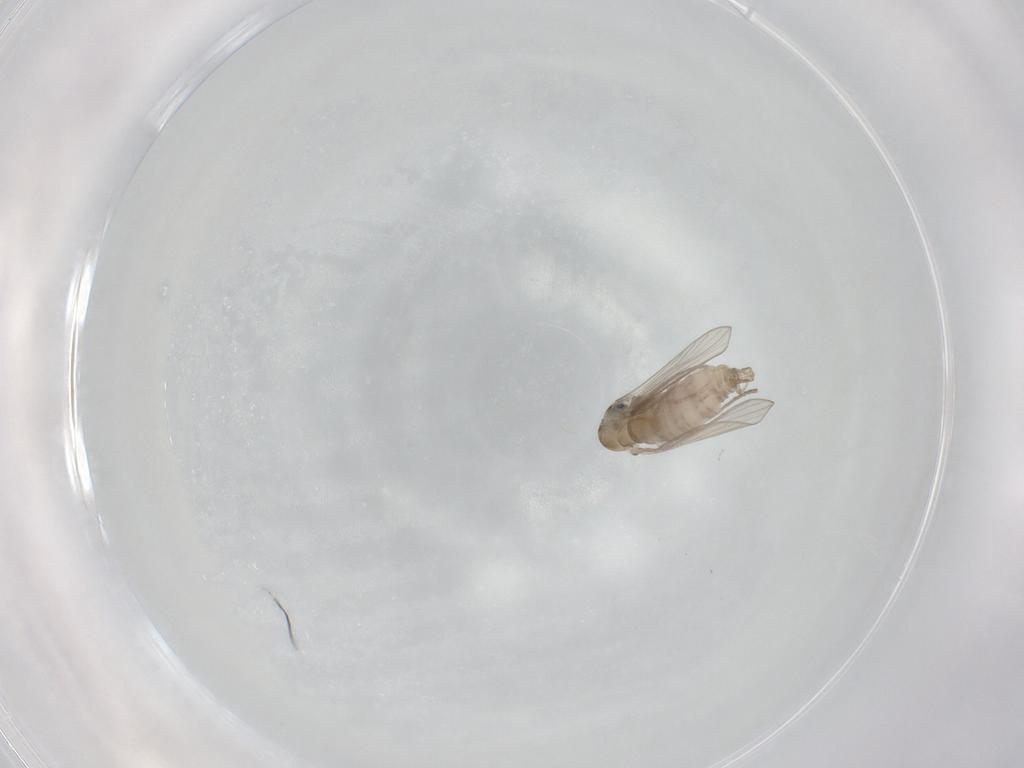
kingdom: Animalia
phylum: Arthropoda
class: Insecta
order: Diptera
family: Psychodidae
